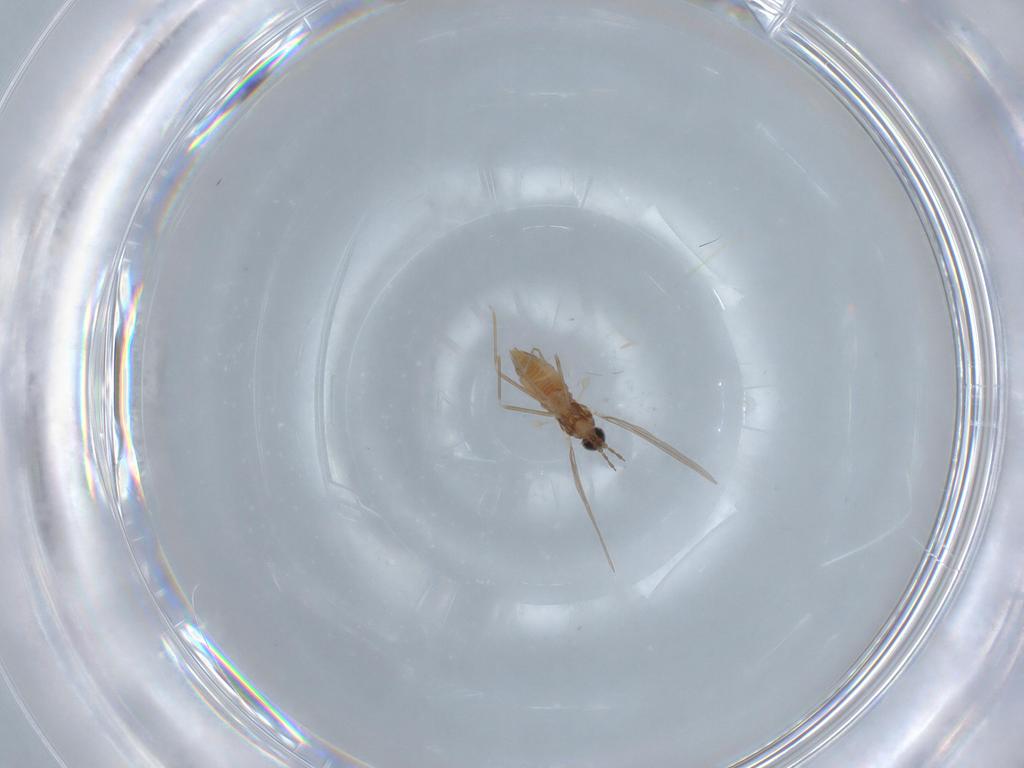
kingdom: Animalia
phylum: Arthropoda
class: Insecta
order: Diptera
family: Cecidomyiidae
